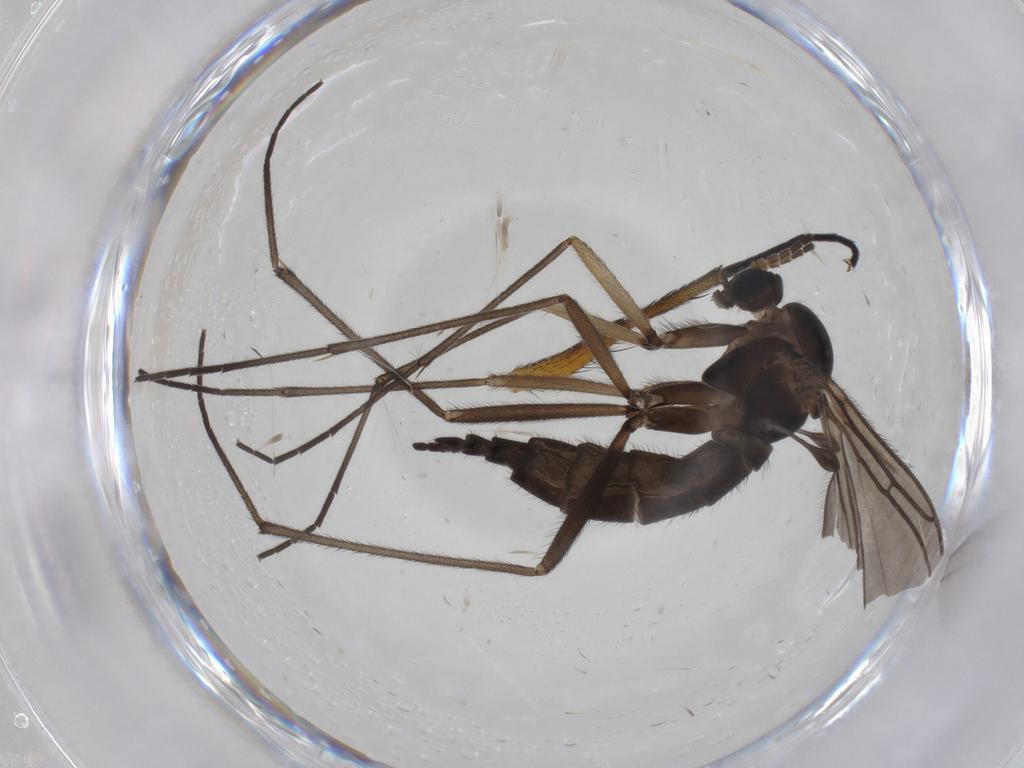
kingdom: Animalia
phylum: Arthropoda
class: Insecta
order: Diptera
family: Sciaridae
